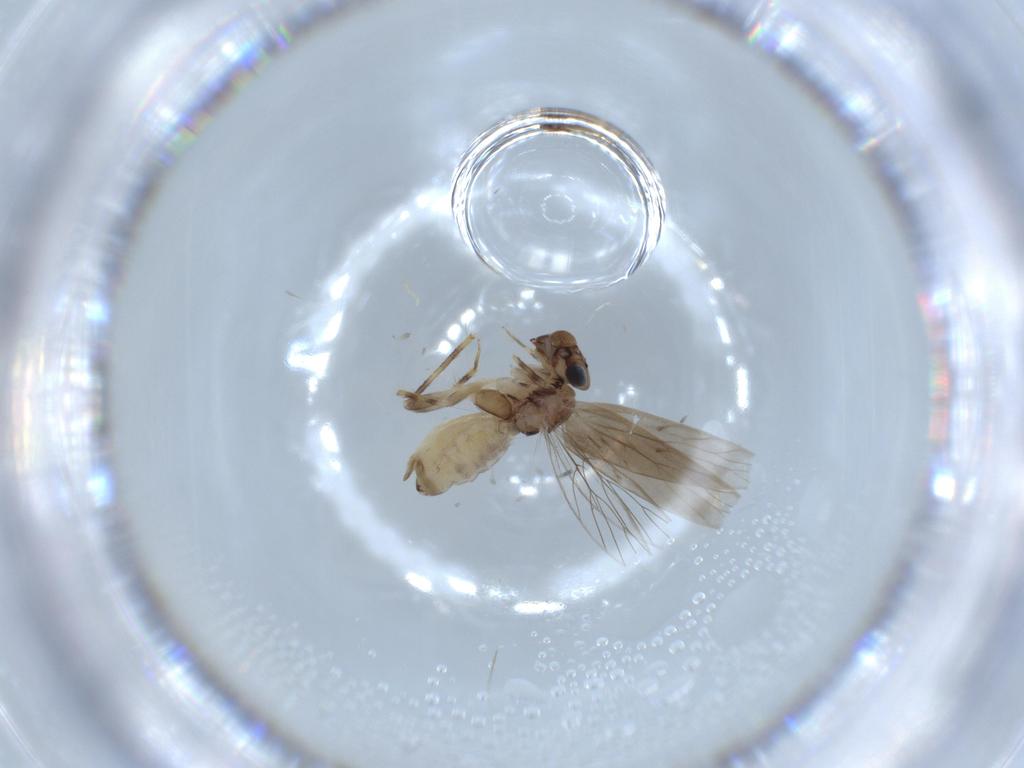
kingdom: Animalia
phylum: Arthropoda
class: Insecta
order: Psocodea
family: Lepidopsocidae
